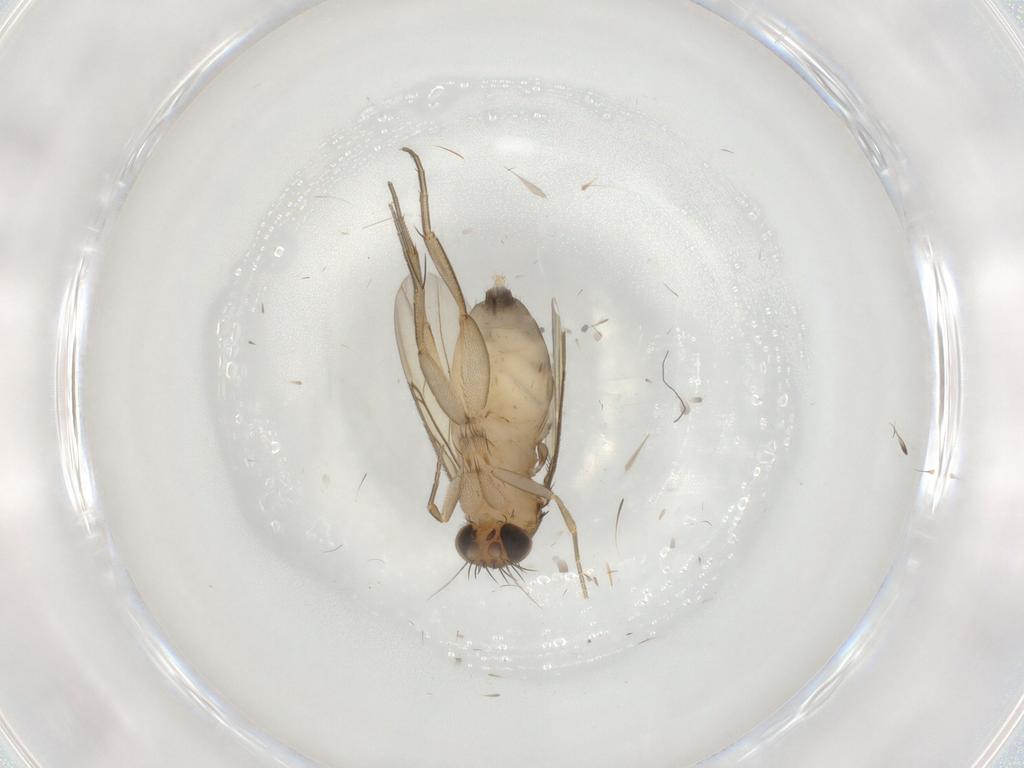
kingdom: Animalia
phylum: Arthropoda
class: Insecta
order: Diptera
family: Phoridae
